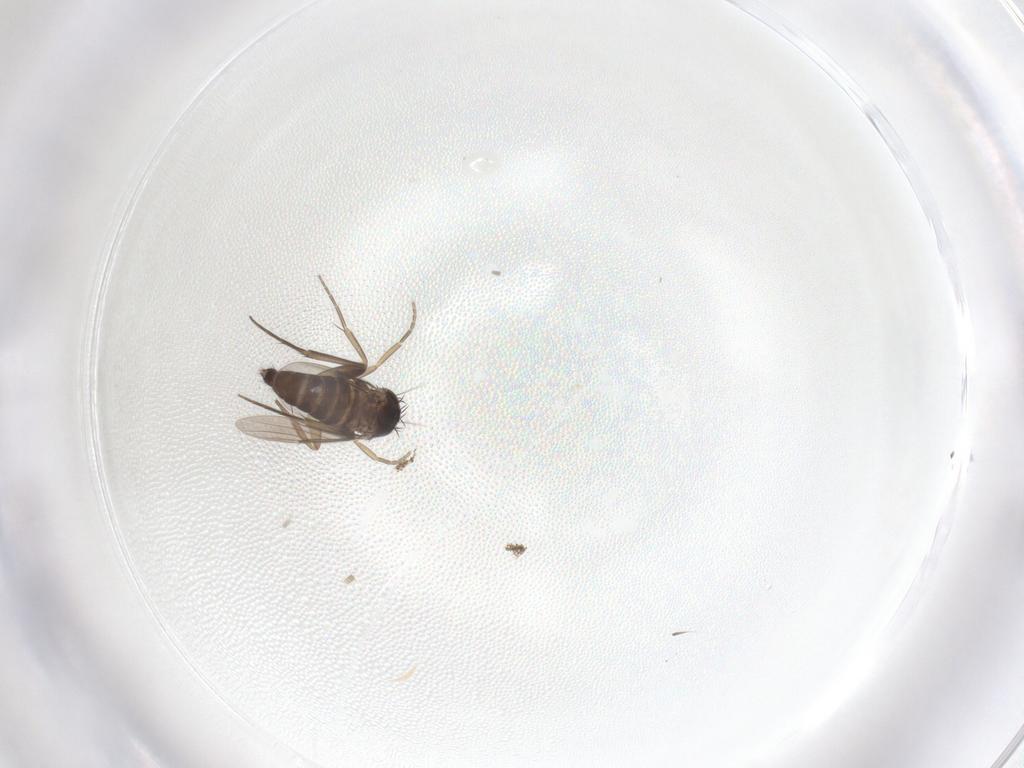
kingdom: Animalia
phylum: Arthropoda
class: Insecta
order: Diptera
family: Phoridae
